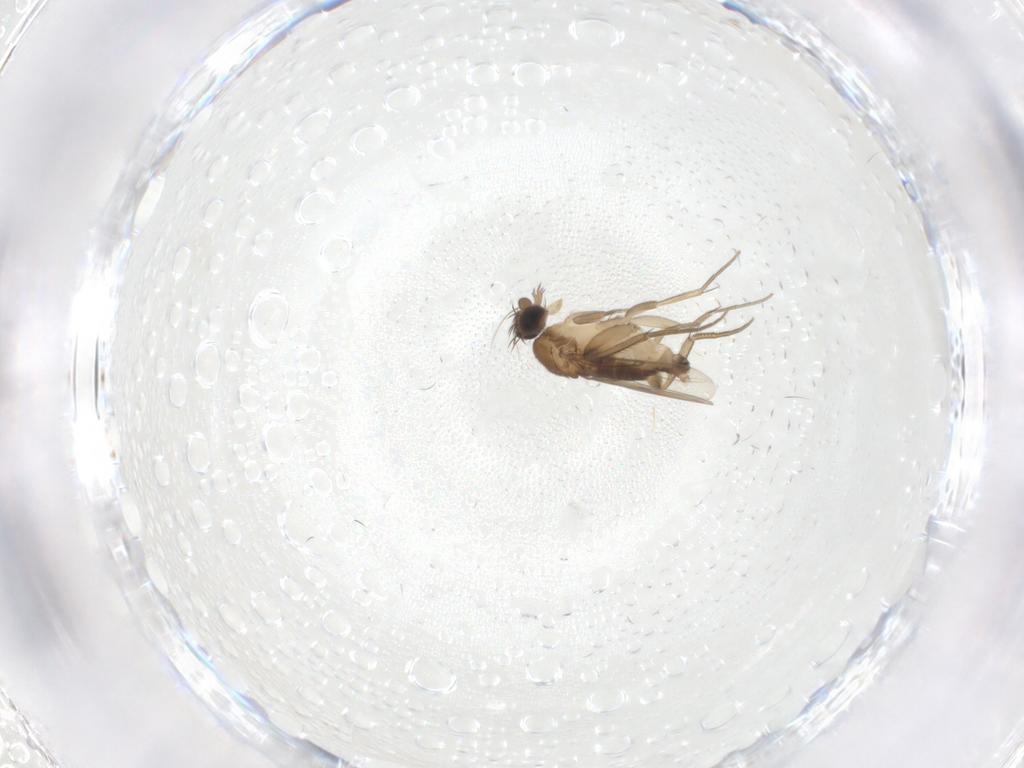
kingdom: Animalia
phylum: Arthropoda
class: Insecta
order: Diptera
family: Phoridae
